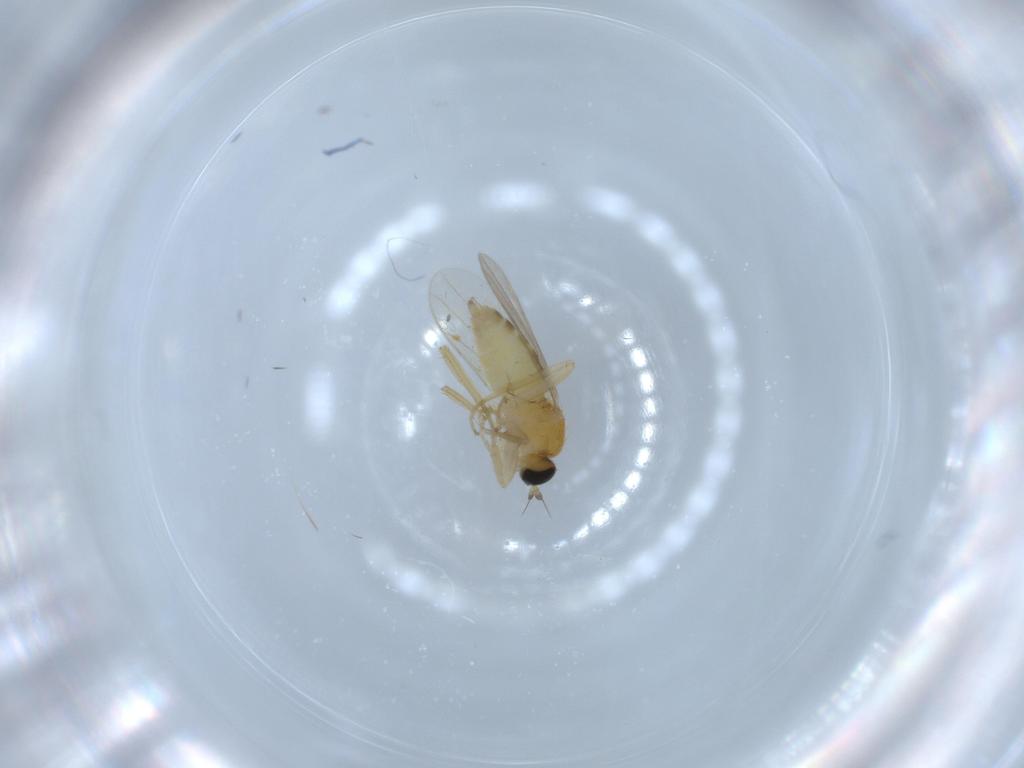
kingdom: Animalia
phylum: Arthropoda
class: Insecta
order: Diptera
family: Hybotidae
